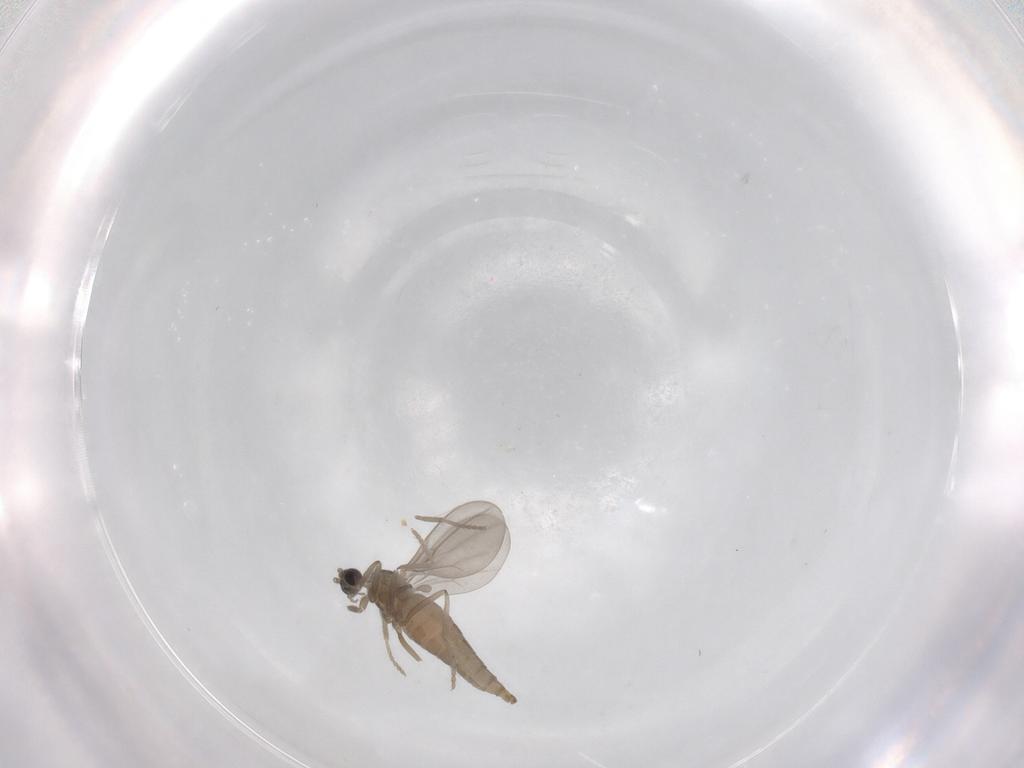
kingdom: Animalia
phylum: Arthropoda
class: Insecta
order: Diptera
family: Cecidomyiidae
